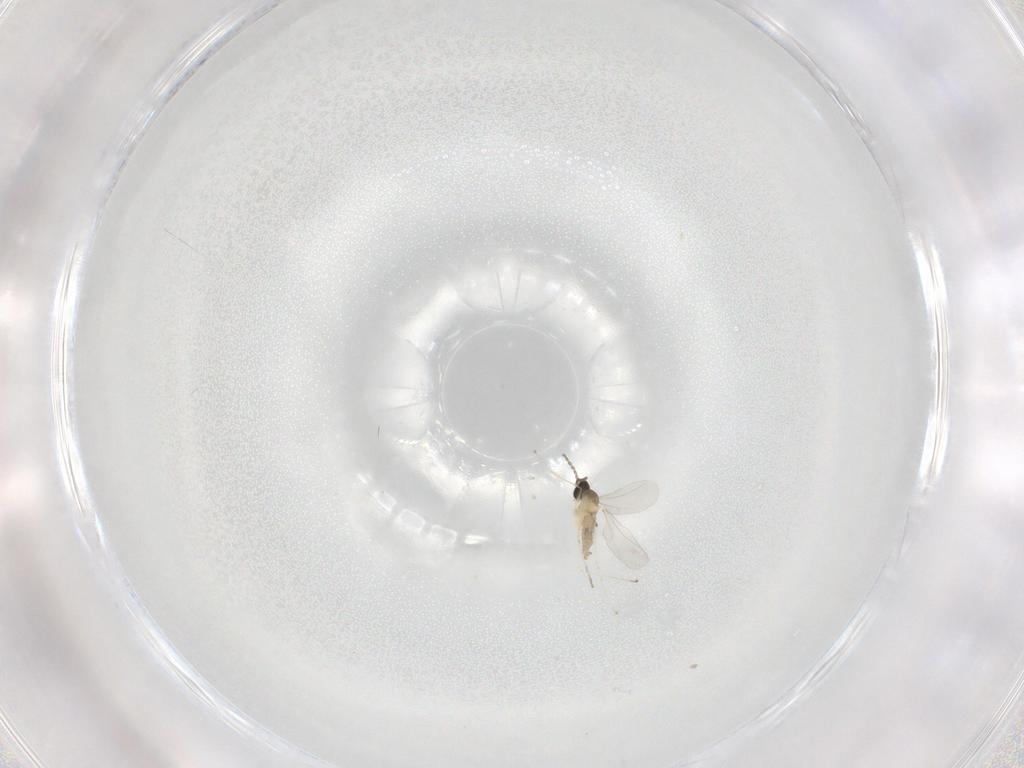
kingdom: Animalia
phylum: Arthropoda
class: Insecta
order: Diptera
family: Cecidomyiidae
